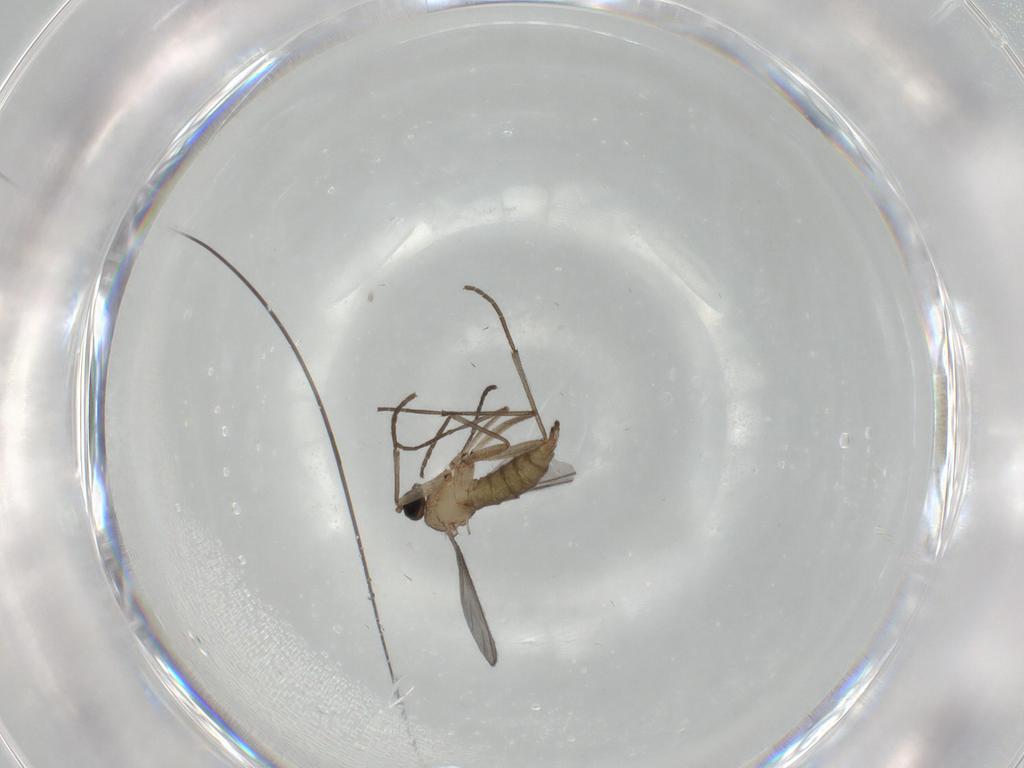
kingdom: Animalia
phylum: Arthropoda
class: Insecta
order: Diptera
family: Sciaridae
